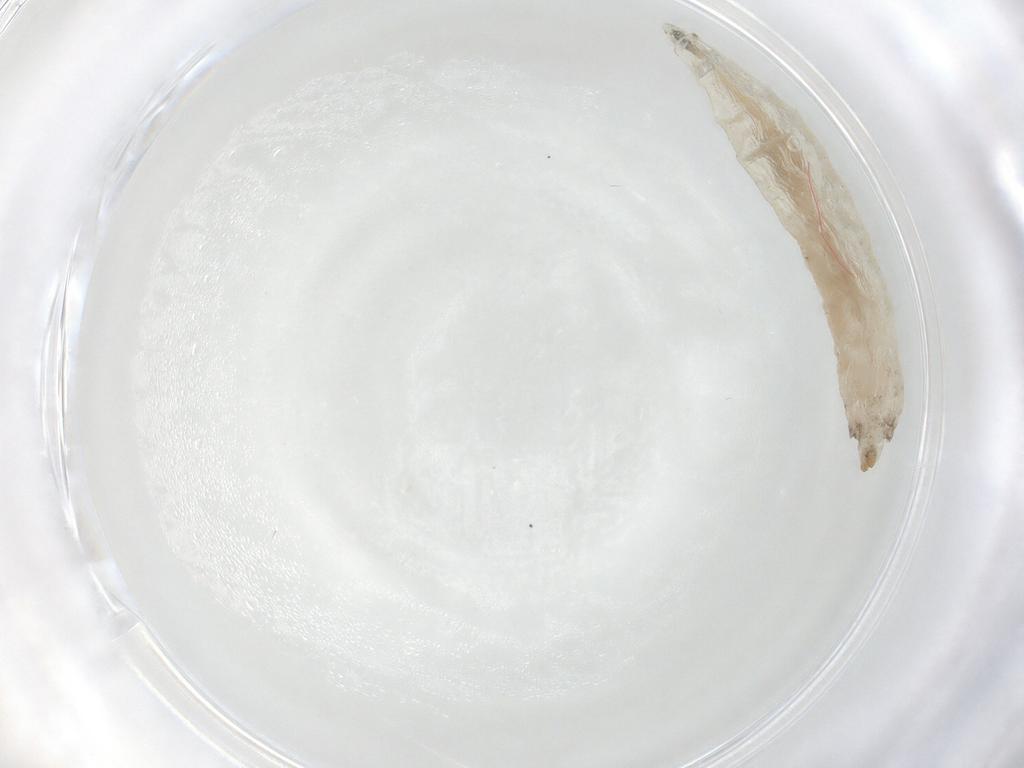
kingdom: Animalia
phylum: Arthropoda
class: Insecta
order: Diptera
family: Drosophilidae
